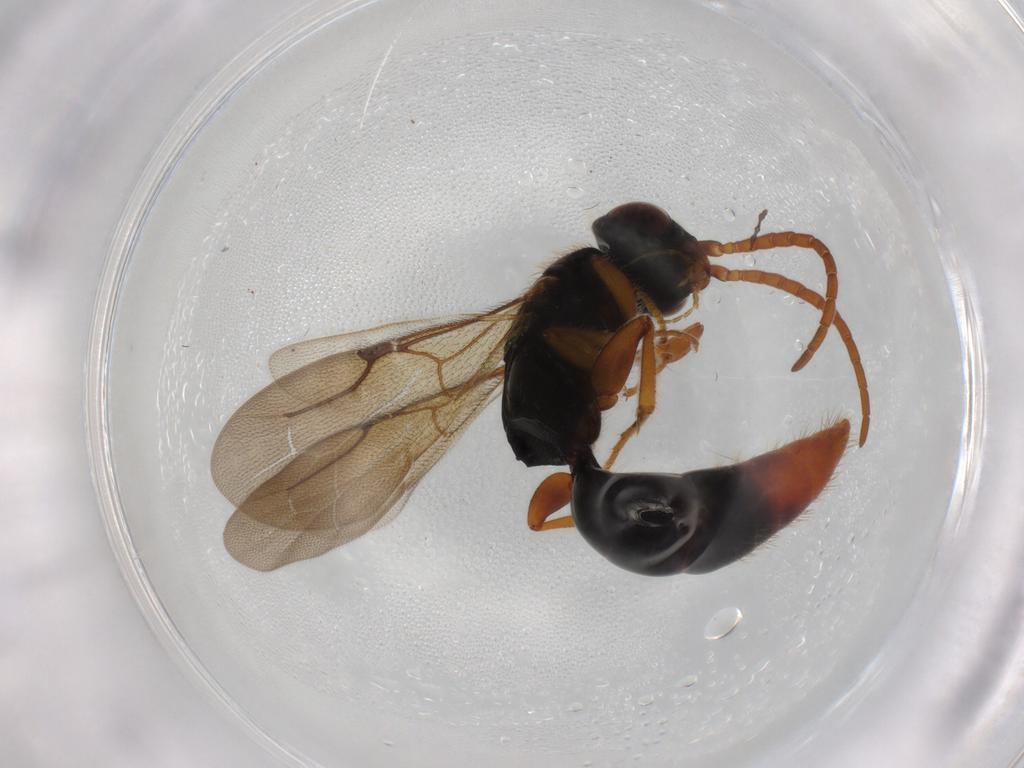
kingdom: Animalia
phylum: Arthropoda
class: Insecta
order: Hymenoptera
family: Bethylidae
